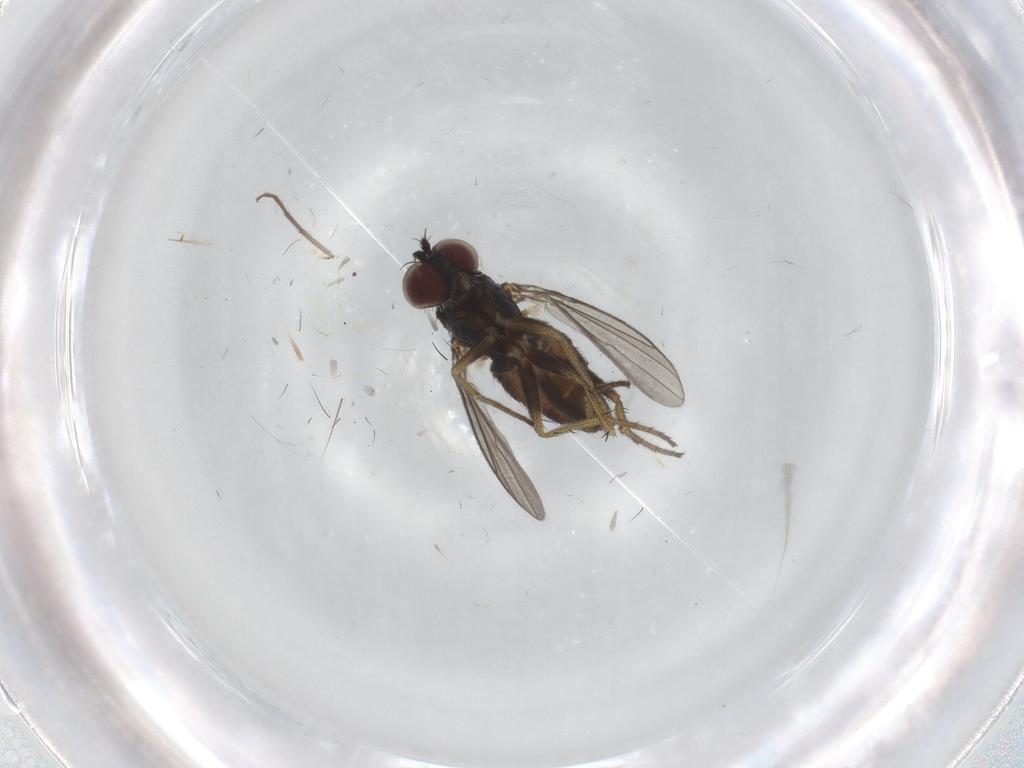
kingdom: Animalia
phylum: Arthropoda
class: Insecta
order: Diptera
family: Dolichopodidae
